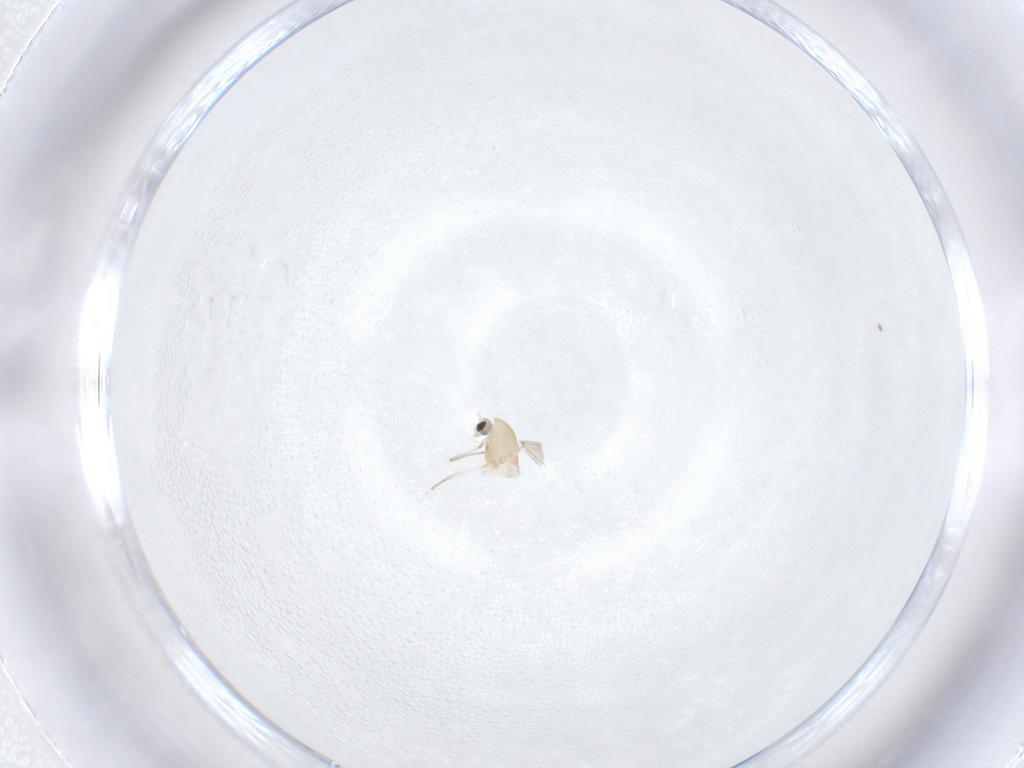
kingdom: Animalia
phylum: Arthropoda
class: Insecta
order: Diptera
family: Chironomidae
